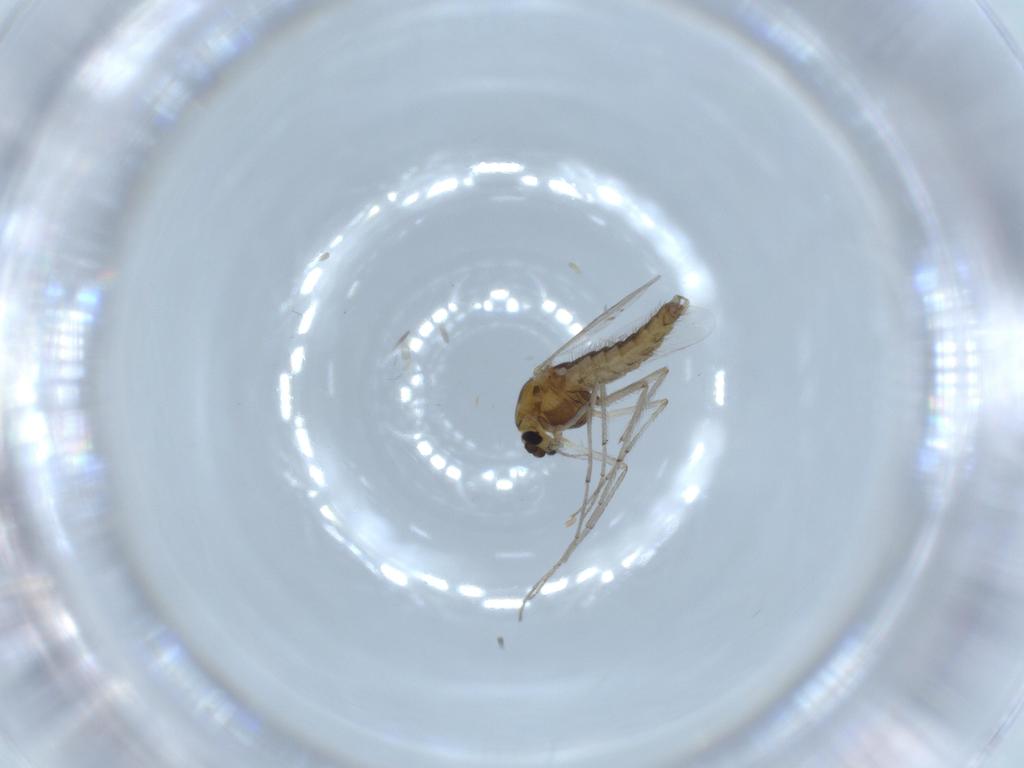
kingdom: Animalia
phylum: Arthropoda
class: Insecta
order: Diptera
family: Chironomidae
